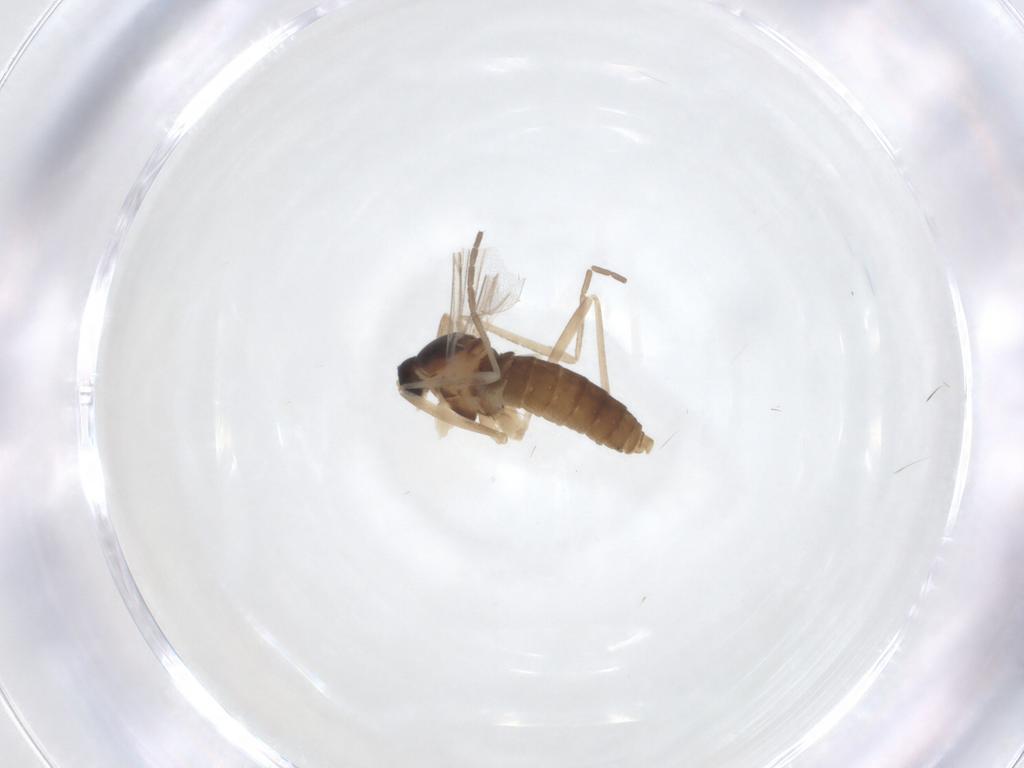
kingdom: Animalia
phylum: Arthropoda
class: Insecta
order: Diptera
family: Cecidomyiidae
